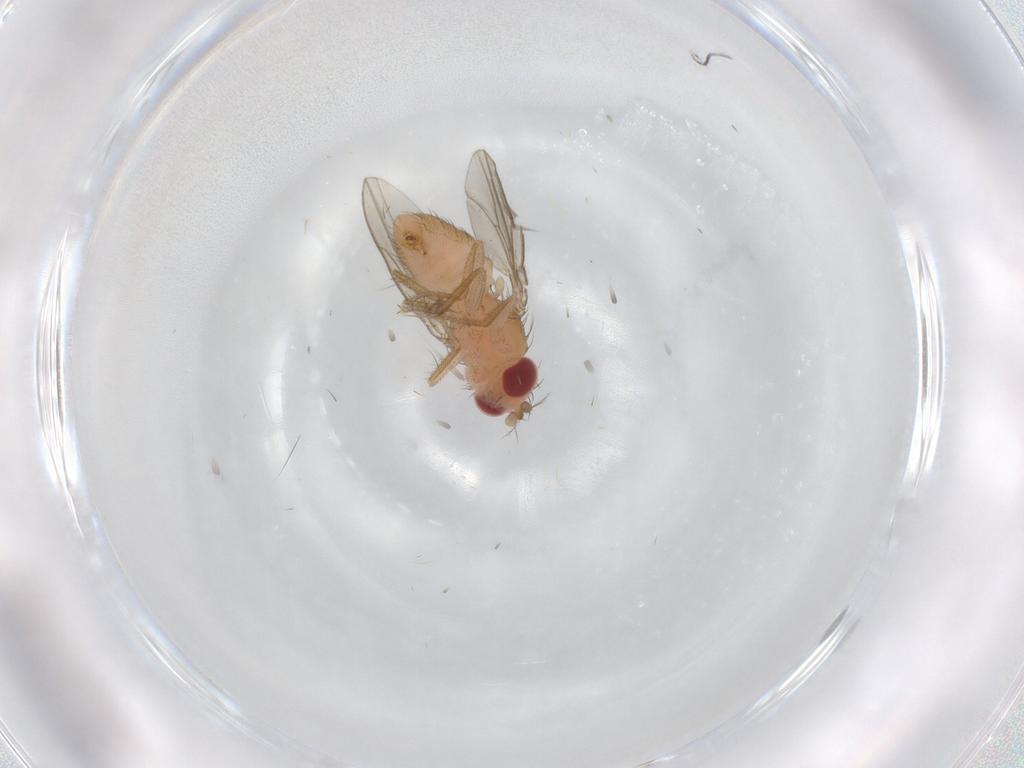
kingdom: Animalia
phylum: Arthropoda
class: Insecta
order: Diptera
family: Drosophilidae
